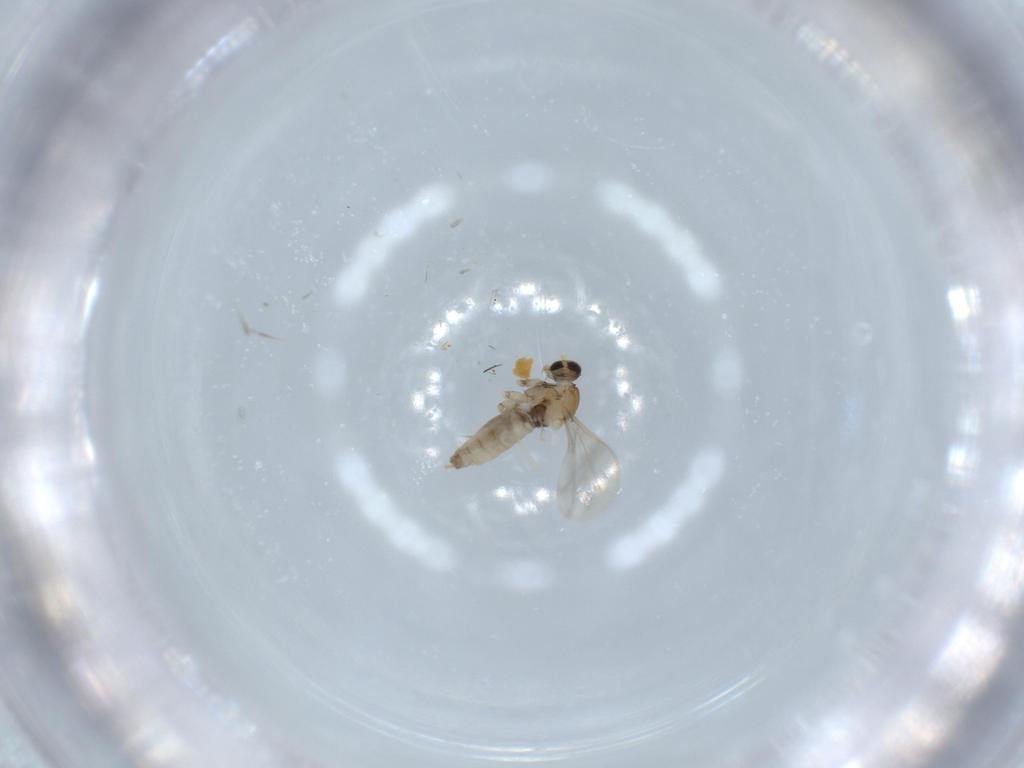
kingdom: Animalia
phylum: Arthropoda
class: Insecta
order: Diptera
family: Cecidomyiidae
